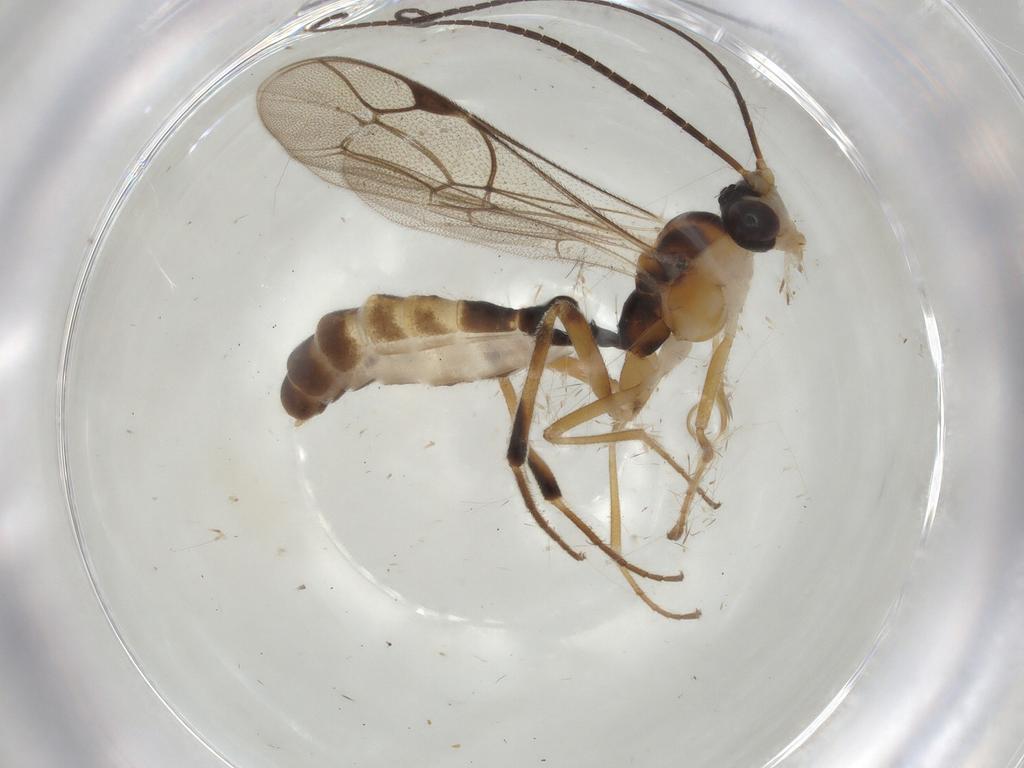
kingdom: Animalia
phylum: Arthropoda
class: Insecta
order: Hymenoptera
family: Ichneumonidae
